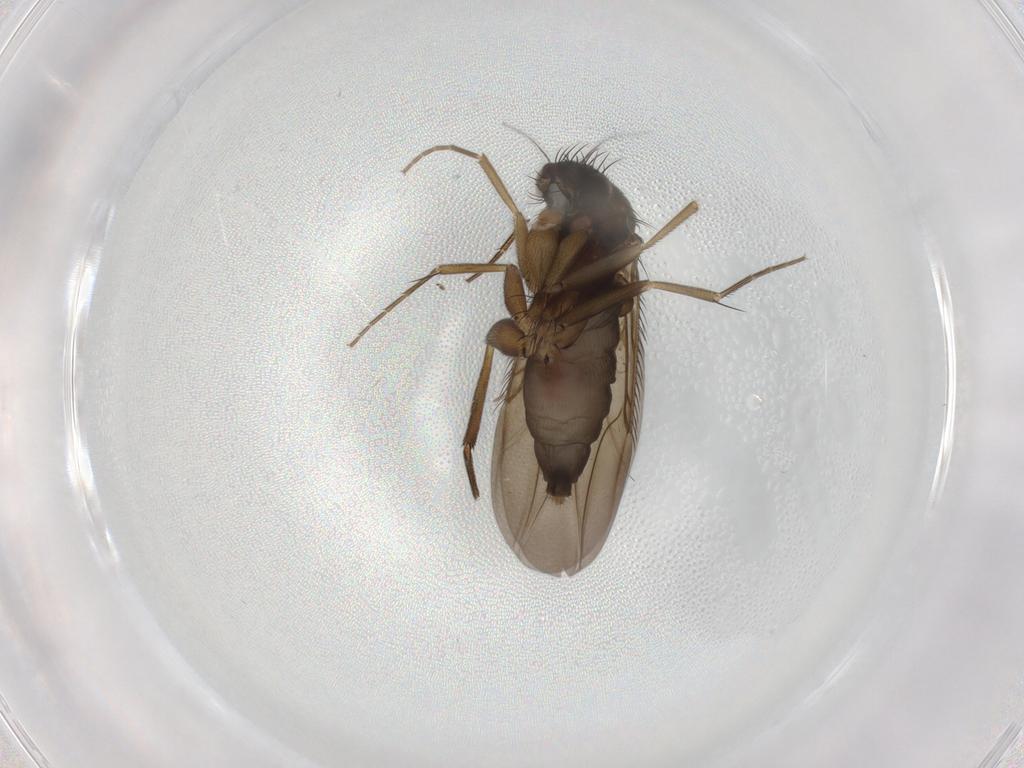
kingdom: Animalia
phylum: Arthropoda
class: Insecta
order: Diptera
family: Phoridae
